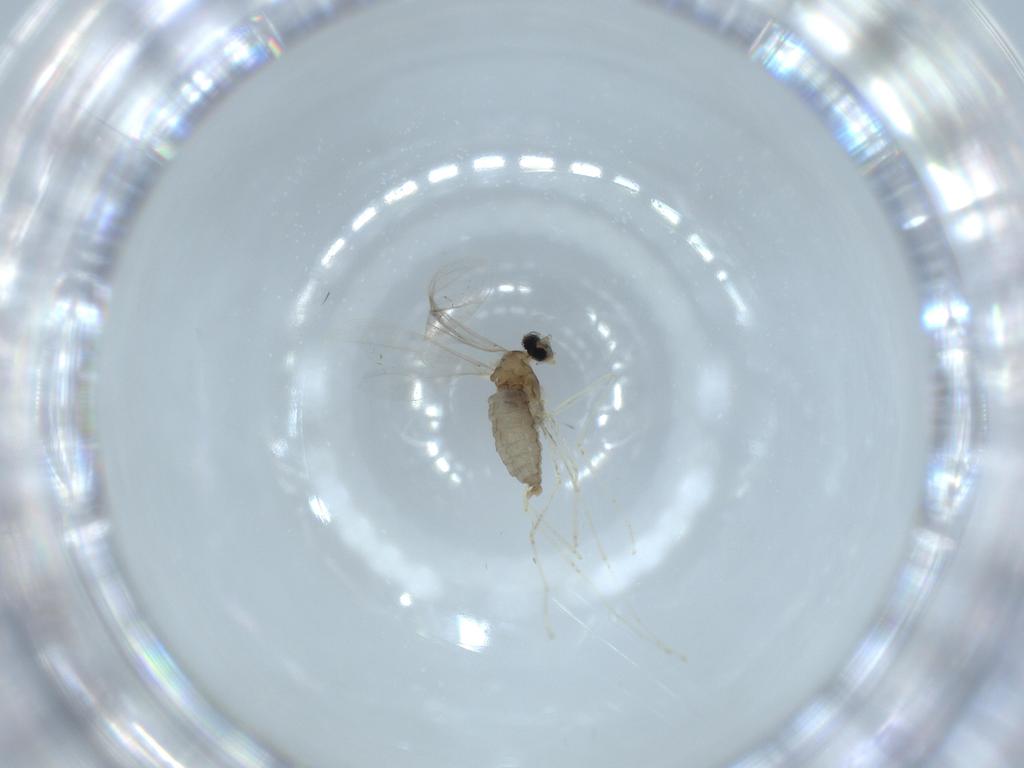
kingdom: Animalia
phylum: Arthropoda
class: Insecta
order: Diptera
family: Cecidomyiidae
